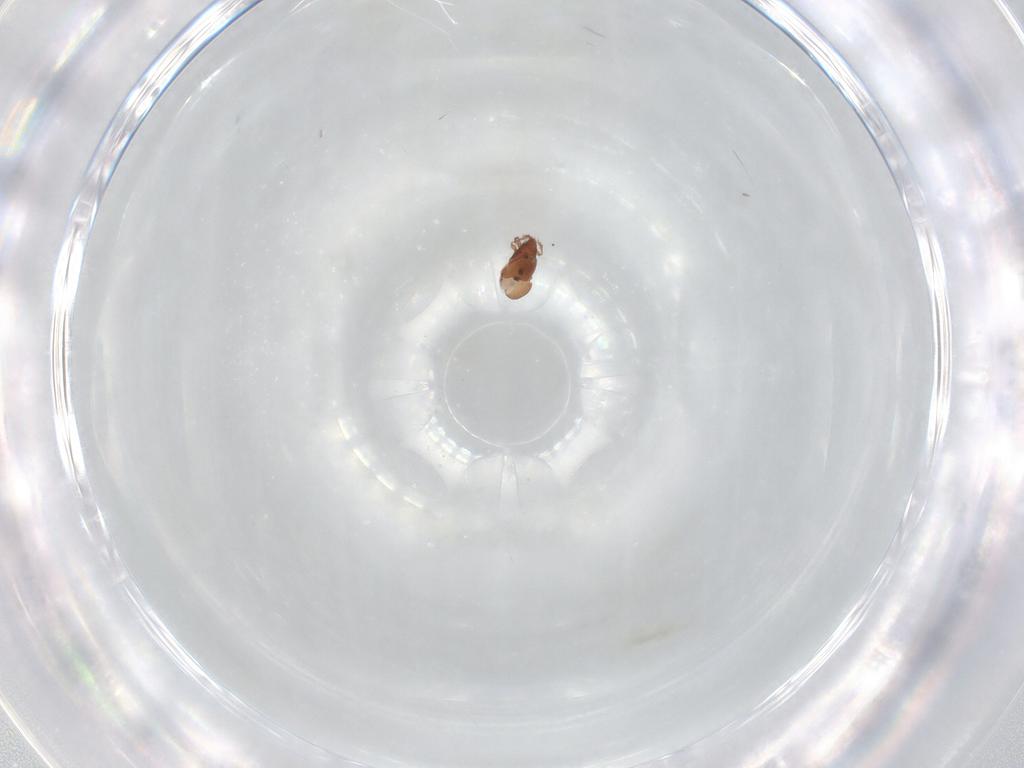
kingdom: Animalia
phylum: Arthropoda
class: Arachnida
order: Sarcoptiformes
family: Oribatulidae
